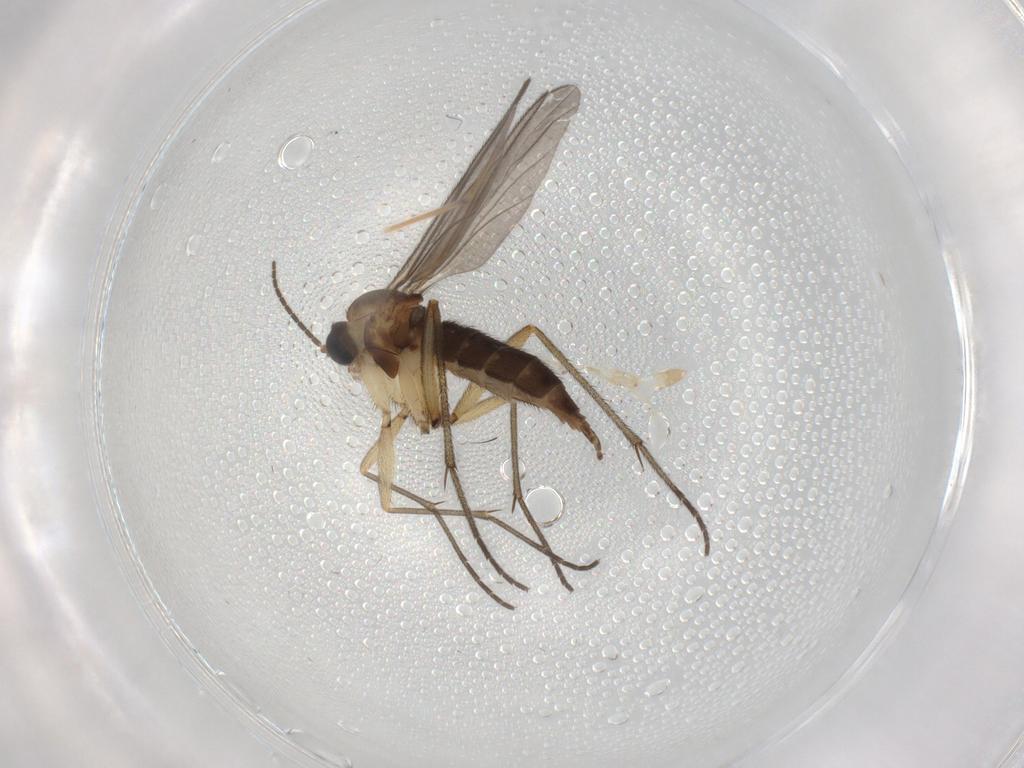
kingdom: Animalia
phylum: Arthropoda
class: Insecta
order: Diptera
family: Sciaridae
